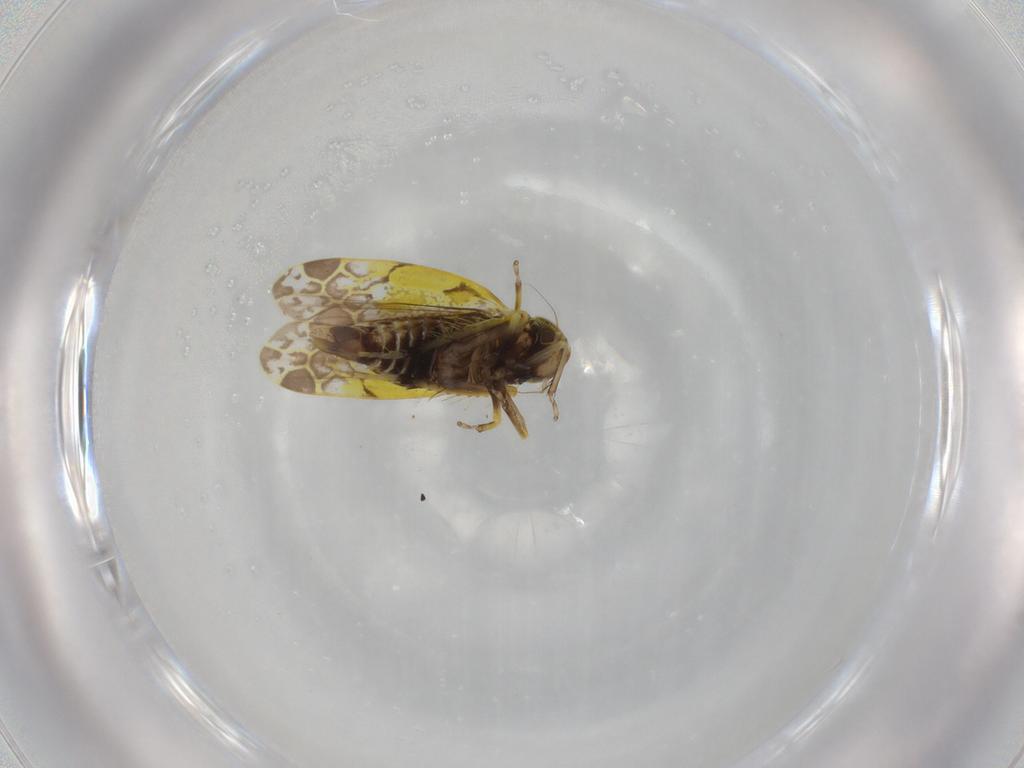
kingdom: Animalia
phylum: Arthropoda
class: Insecta
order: Hemiptera
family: Cicadellidae
